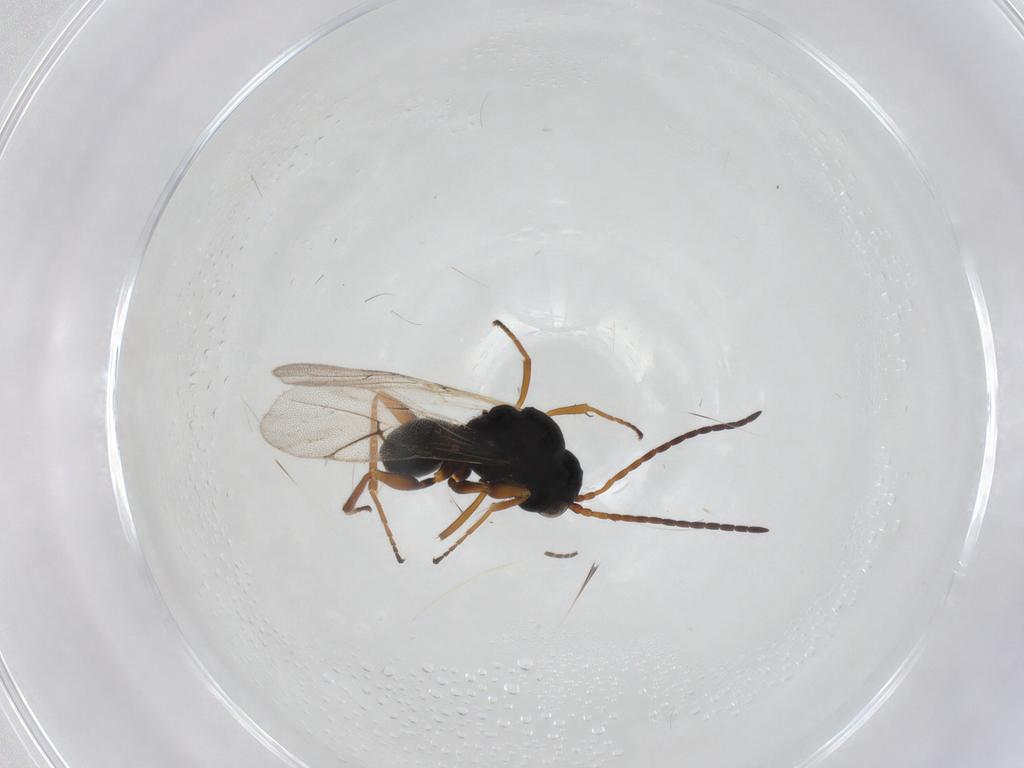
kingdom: Animalia
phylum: Arthropoda
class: Insecta
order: Hymenoptera
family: Cynipidae
